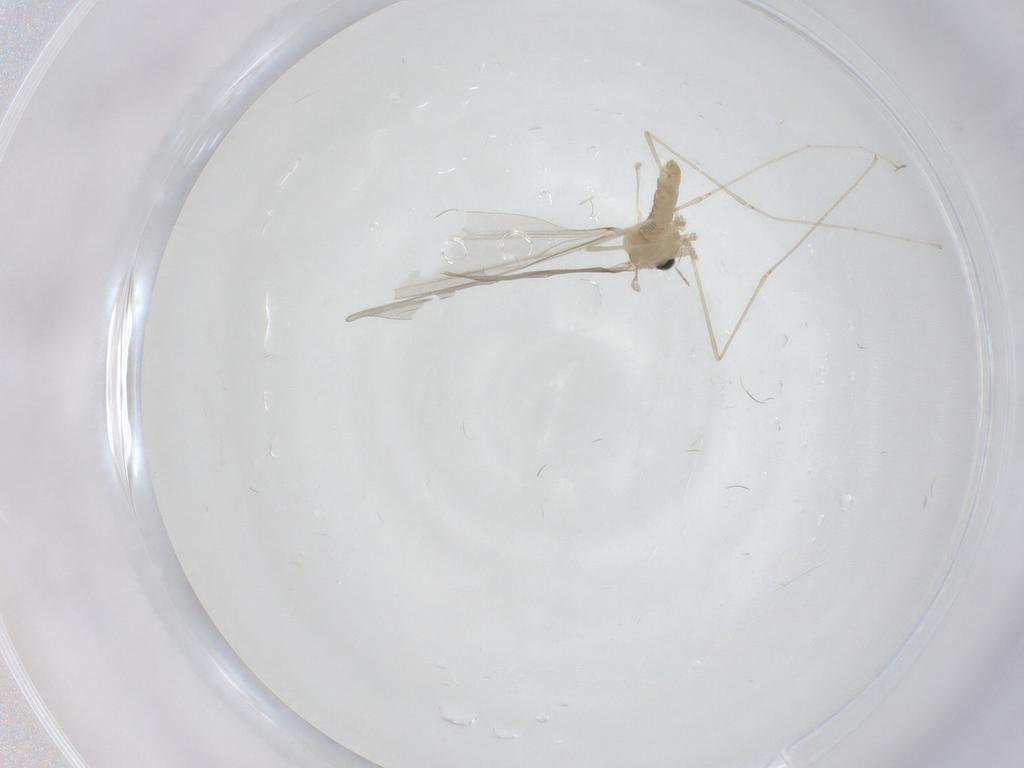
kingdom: Animalia
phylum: Arthropoda
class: Insecta
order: Diptera
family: Cecidomyiidae
